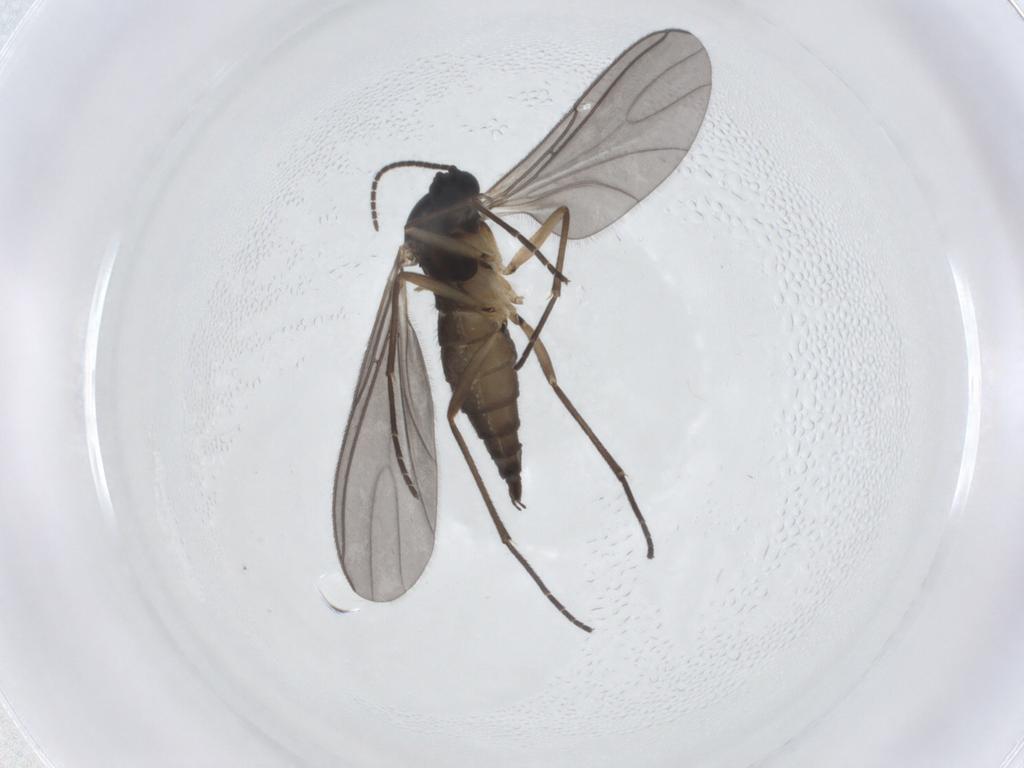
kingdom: Animalia
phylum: Arthropoda
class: Insecta
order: Diptera
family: Sciaridae
